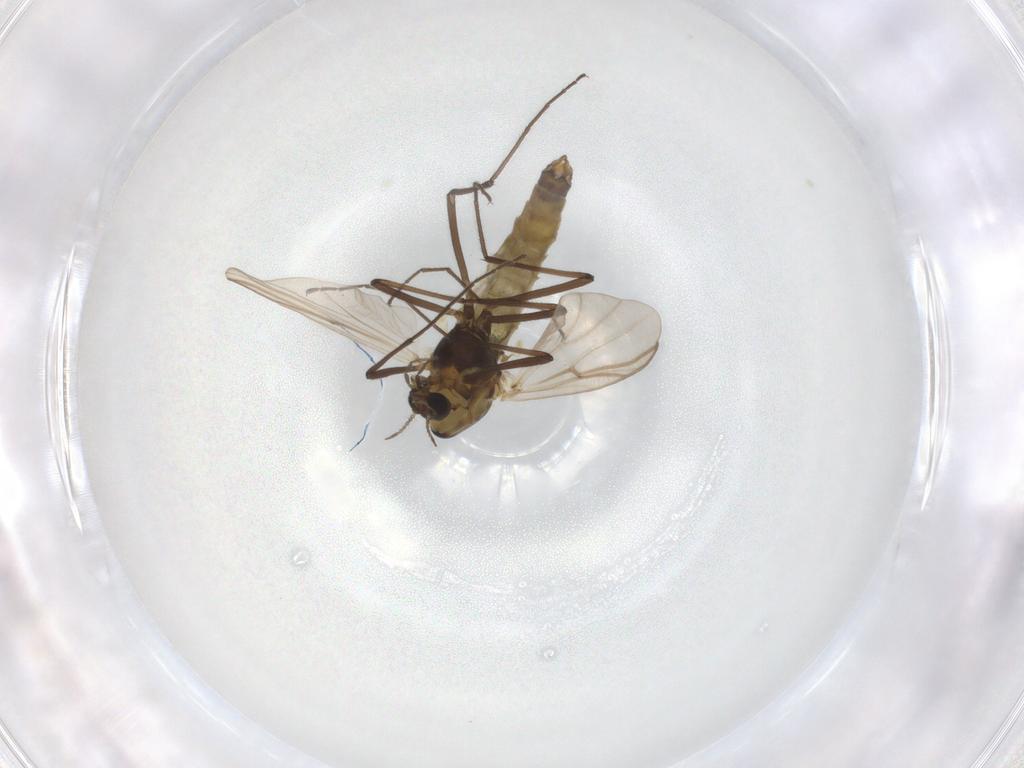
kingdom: Animalia
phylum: Arthropoda
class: Insecta
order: Diptera
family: Chironomidae
